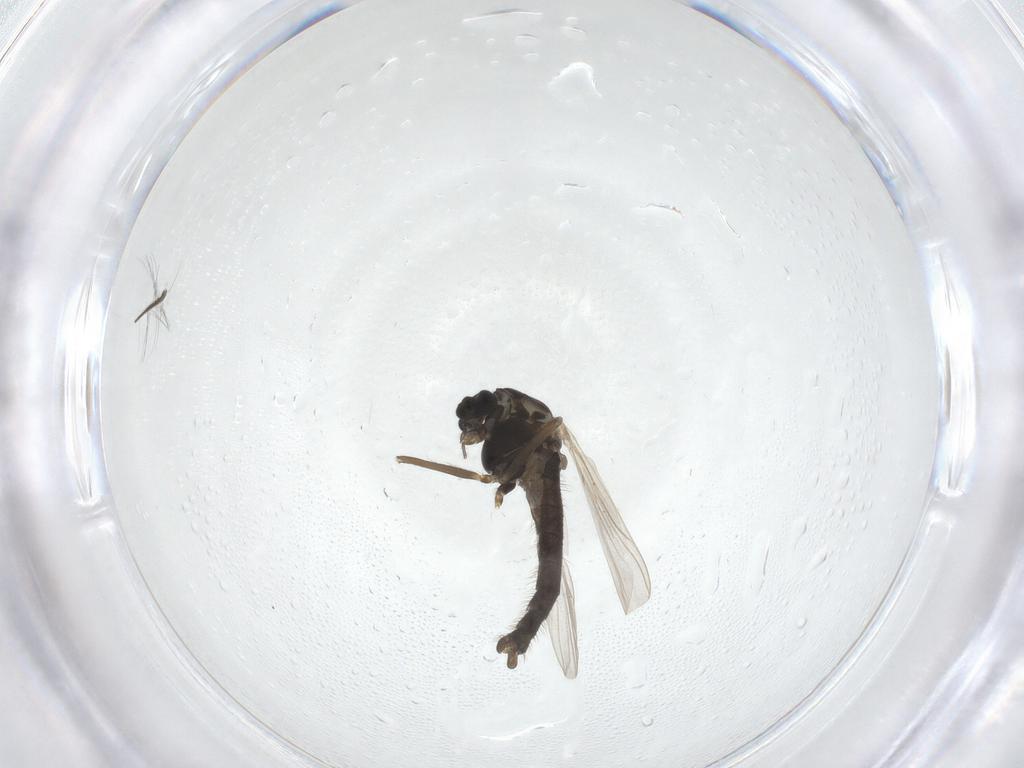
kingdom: Animalia
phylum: Arthropoda
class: Insecta
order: Diptera
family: Chironomidae
